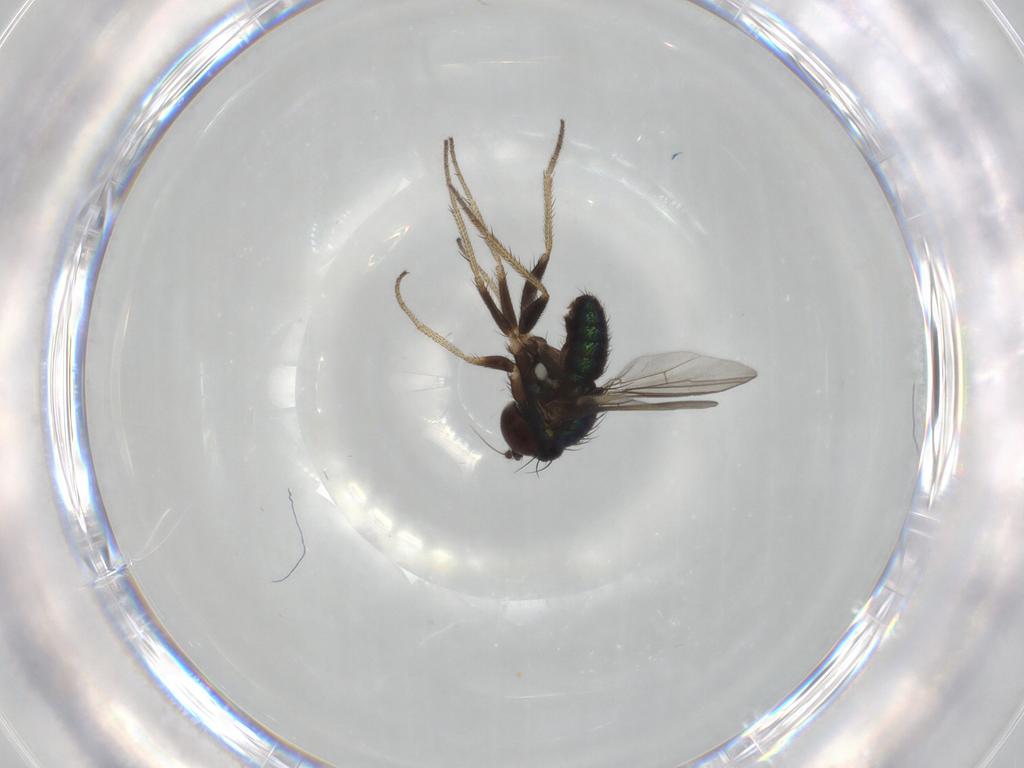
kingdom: Animalia
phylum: Arthropoda
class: Insecta
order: Diptera
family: Dolichopodidae
